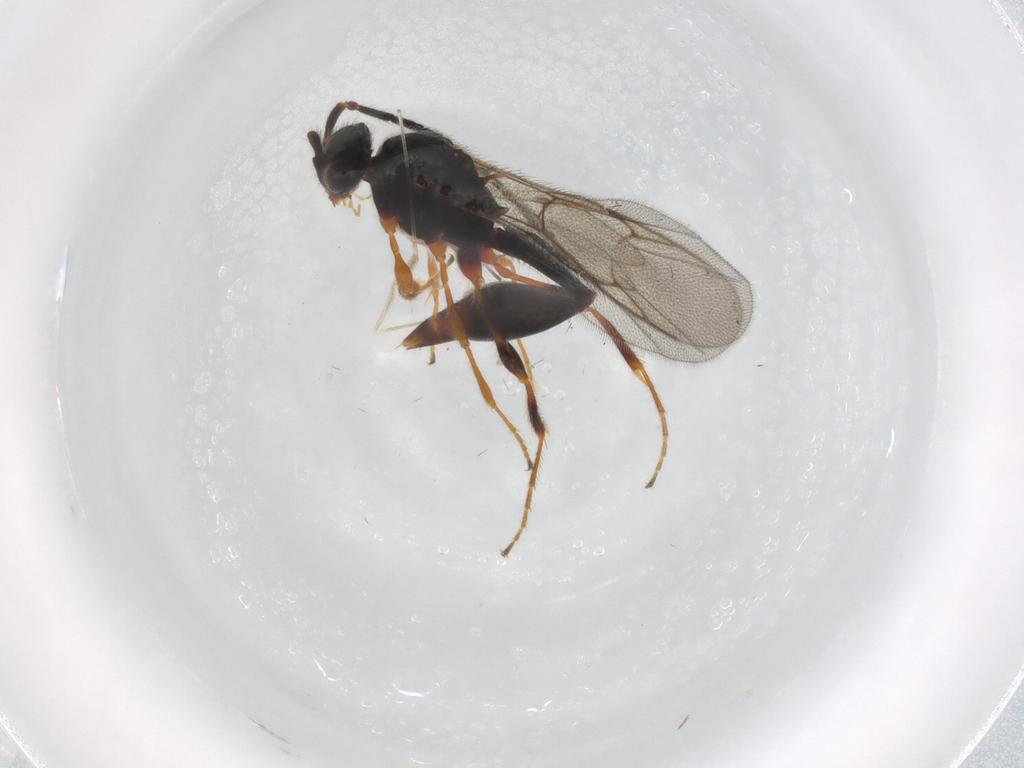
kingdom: Animalia
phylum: Arthropoda
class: Insecta
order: Hymenoptera
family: Diapriidae
